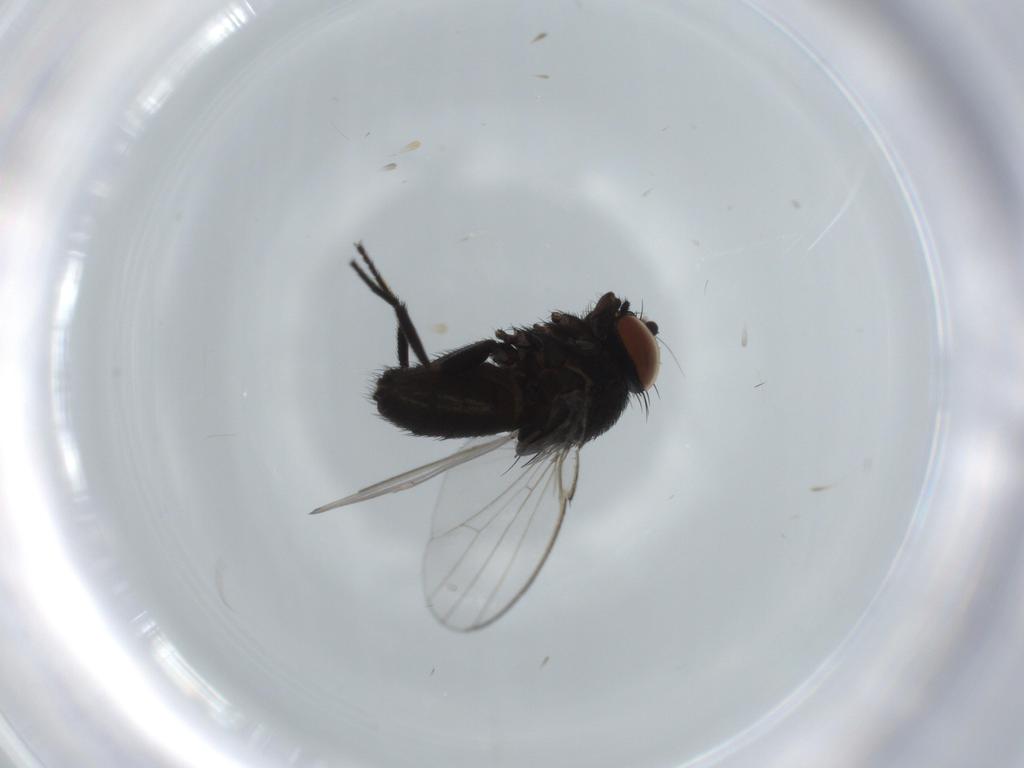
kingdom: Animalia
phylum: Arthropoda
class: Insecta
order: Diptera
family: Milichiidae
